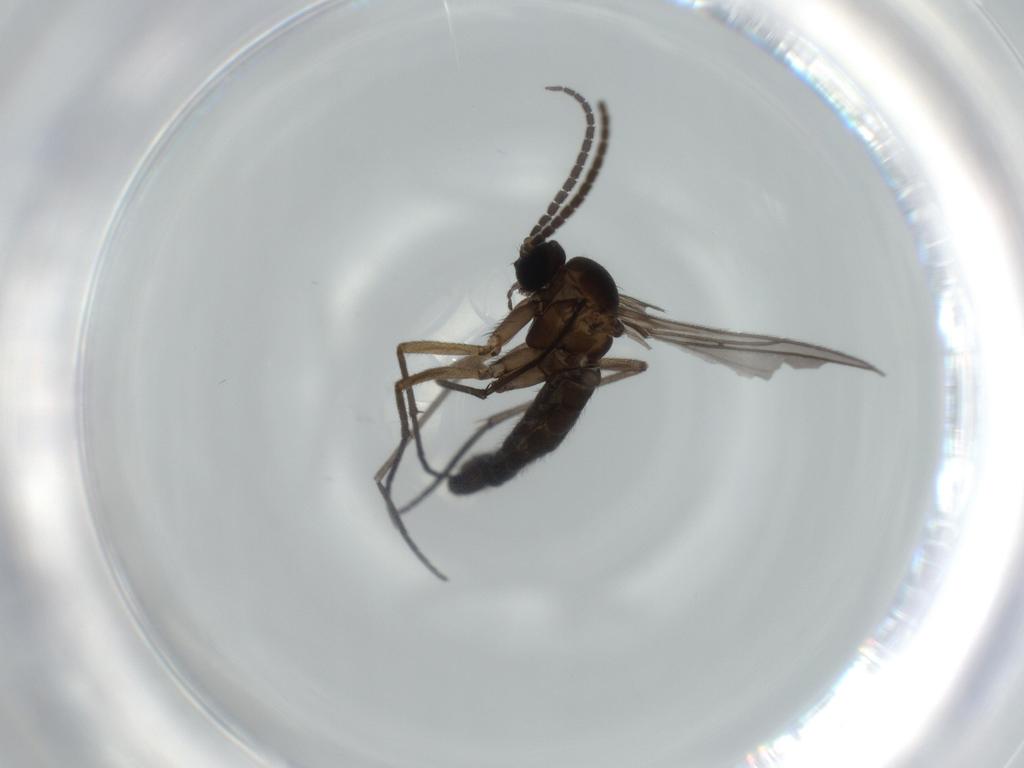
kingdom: Animalia
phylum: Arthropoda
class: Insecta
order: Diptera
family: Sciaridae
